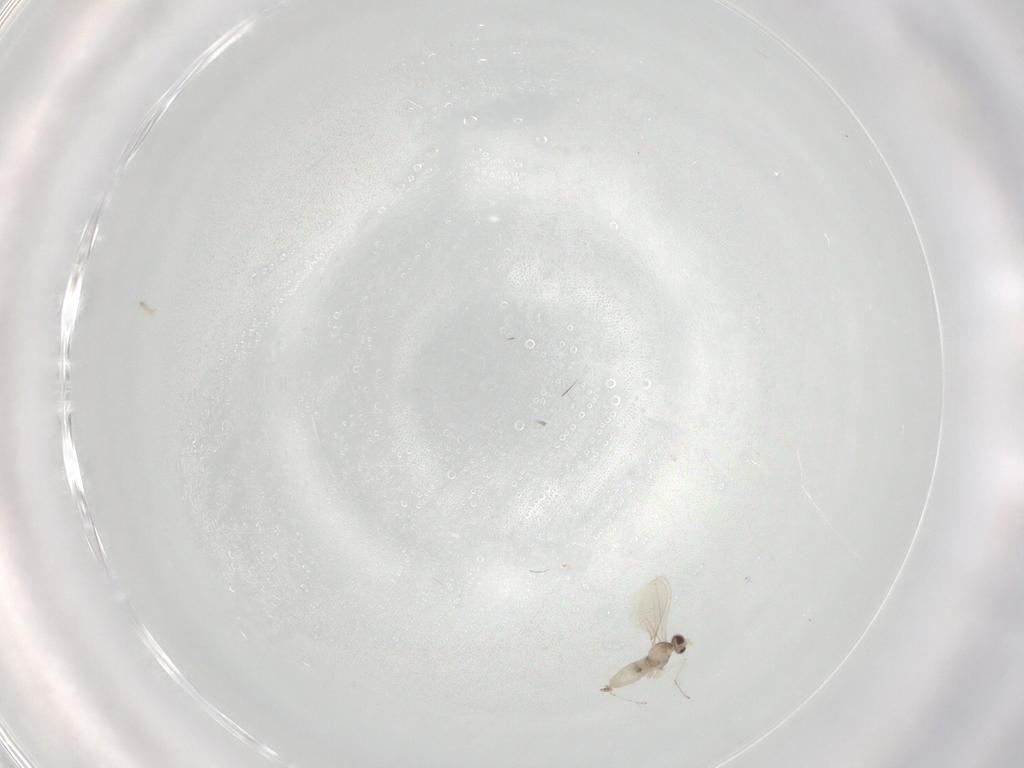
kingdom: Animalia
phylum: Arthropoda
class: Insecta
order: Diptera
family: Cecidomyiidae
